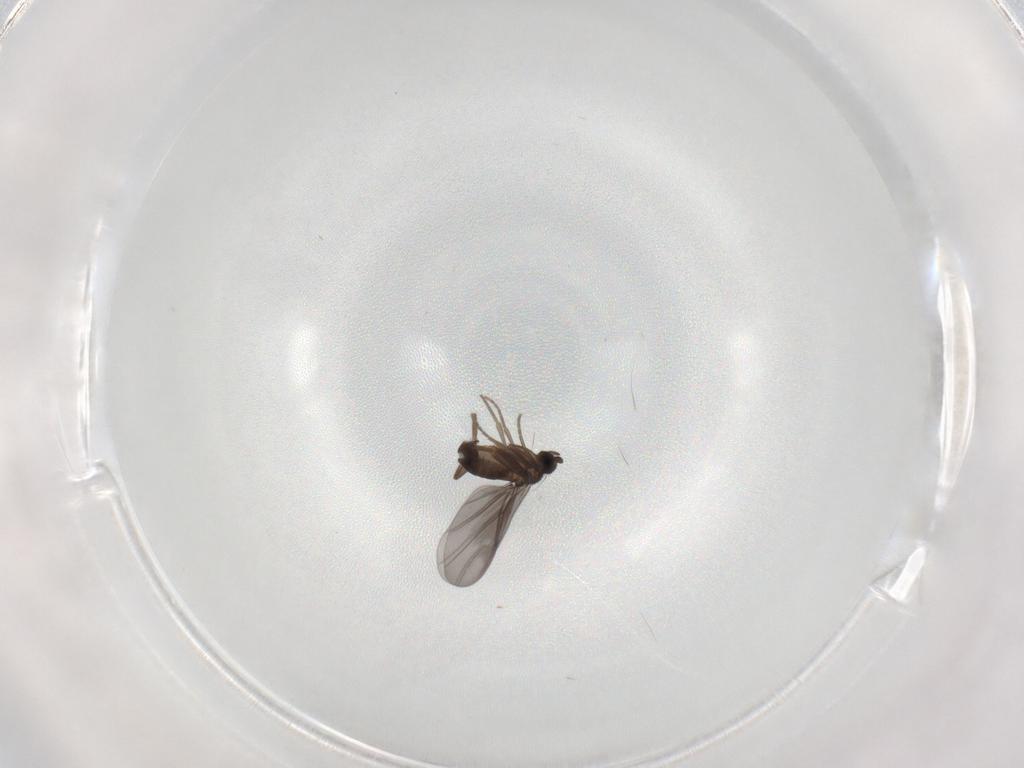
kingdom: Animalia
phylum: Arthropoda
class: Insecta
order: Diptera
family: Phoridae
